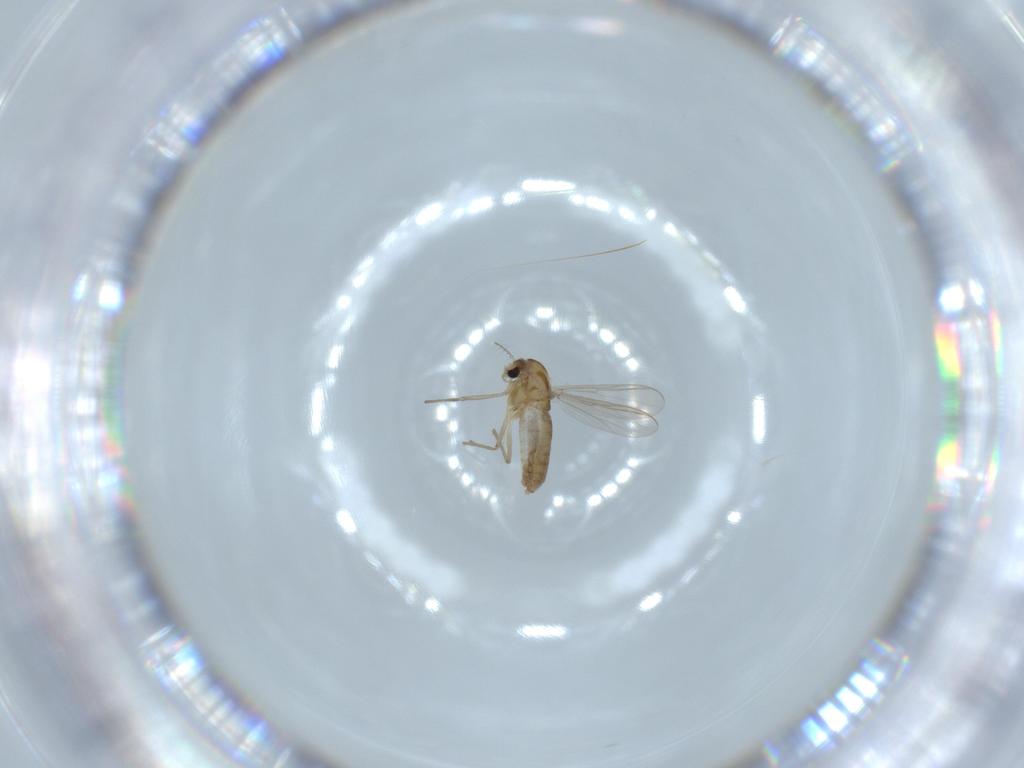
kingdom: Animalia
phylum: Arthropoda
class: Insecta
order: Diptera
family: Chironomidae
